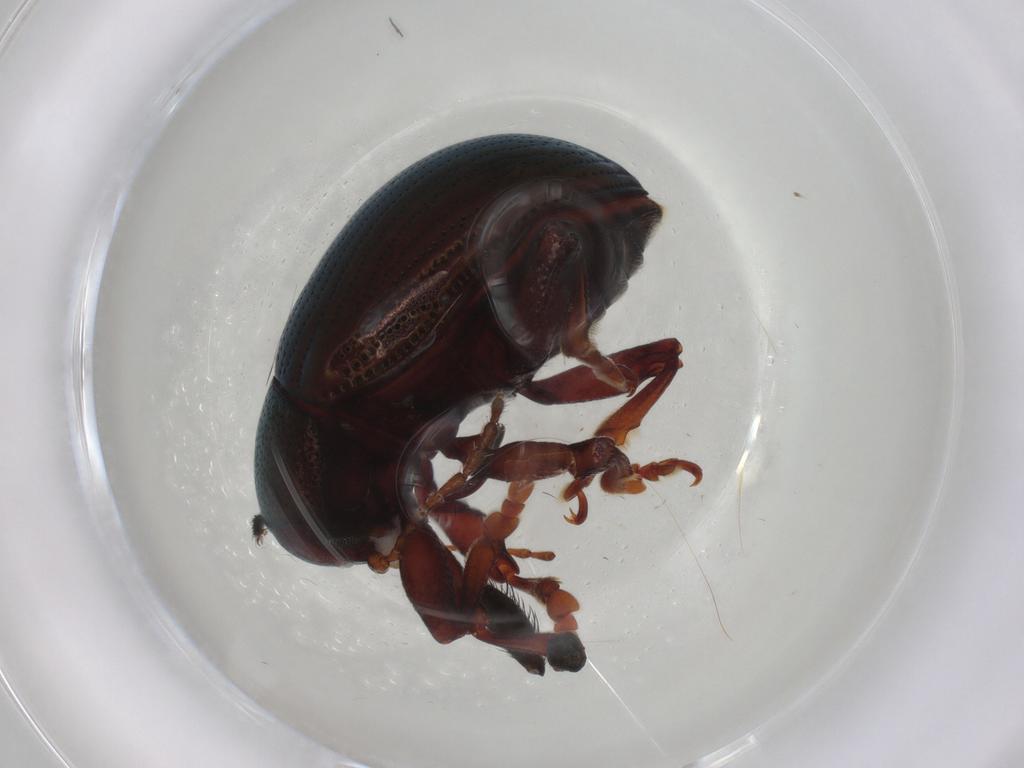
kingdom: Animalia
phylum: Arthropoda
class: Insecta
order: Coleoptera
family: Chrysomelidae
